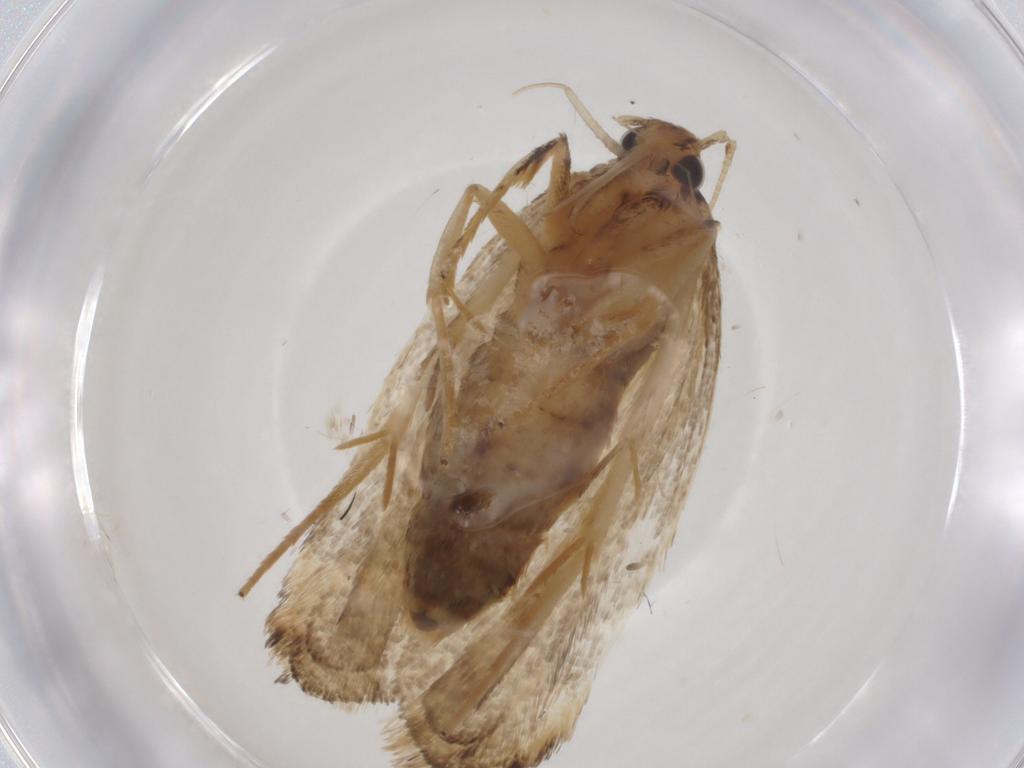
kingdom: Animalia
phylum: Arthropoda
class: Insecta
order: Lepidoptera
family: Lecithoceridae
